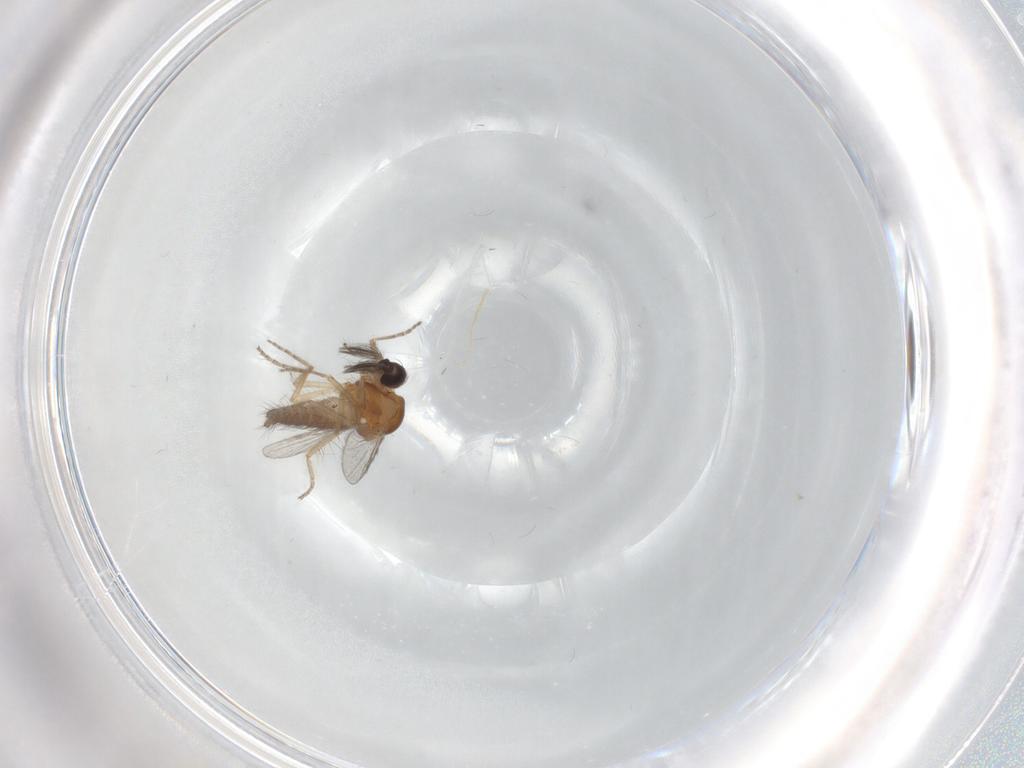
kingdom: Animalia
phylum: Arthropoda
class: Insecta
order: Diptera
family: Ceratopogonidae
